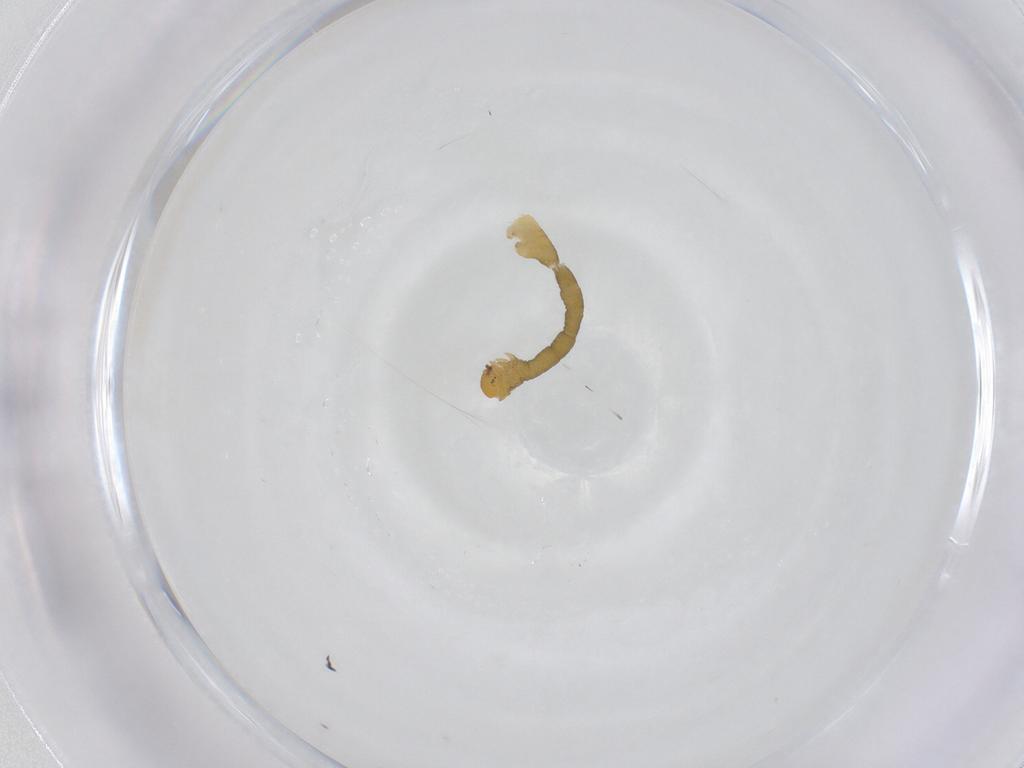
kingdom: Animalia
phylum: Arthropoda
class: Insecta
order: Lepidoptera
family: Geometridae
